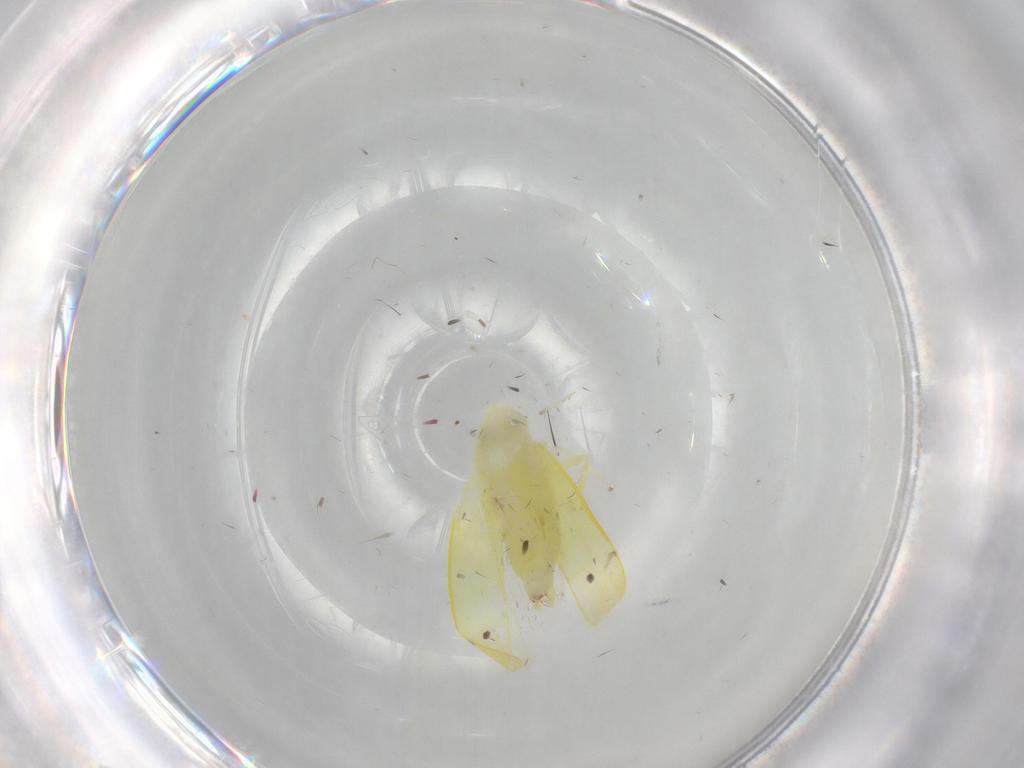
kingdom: Animalia
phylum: Arthropoda
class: Insecta
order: Hemiptera
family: Cicadellidae
